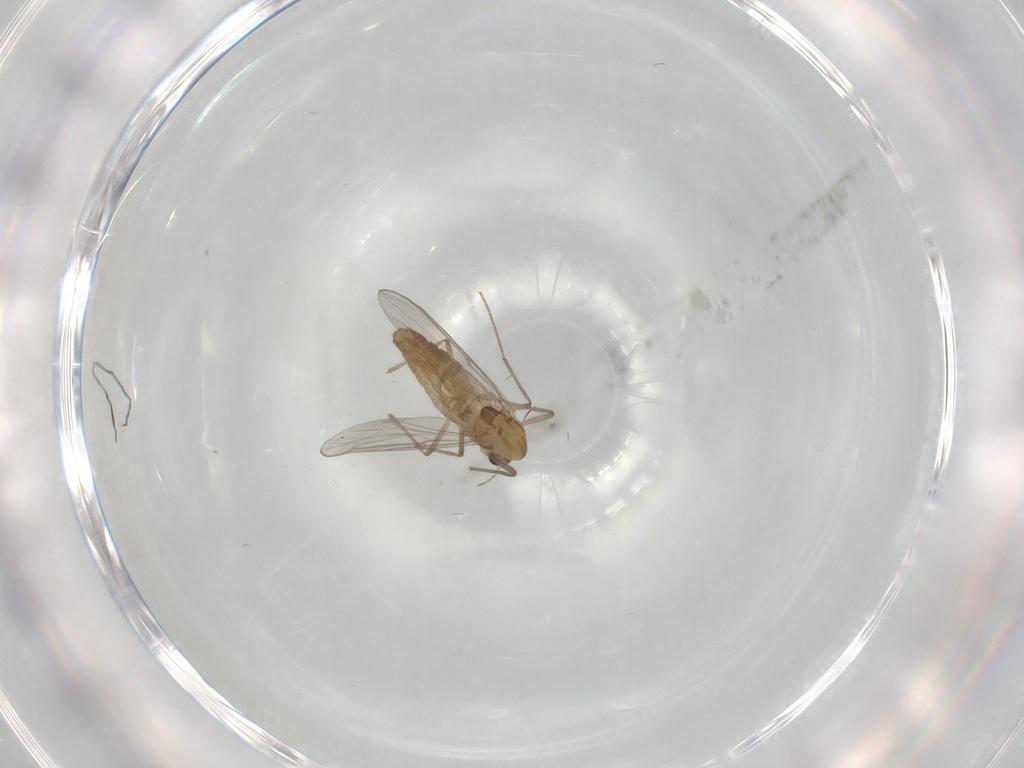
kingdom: Animalia
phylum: Arthropoda
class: Insecta
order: Diptera
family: Chironomidae
